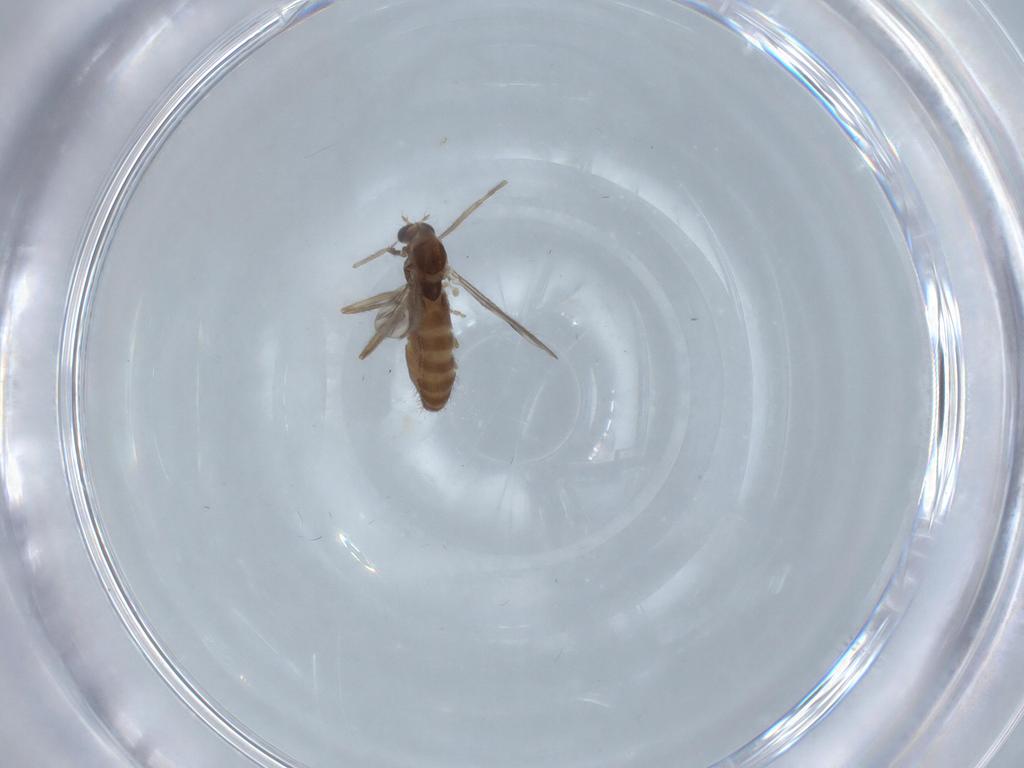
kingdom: Animalia
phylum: Arthropoda
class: Insecta
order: Diptera
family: Chironomidae
